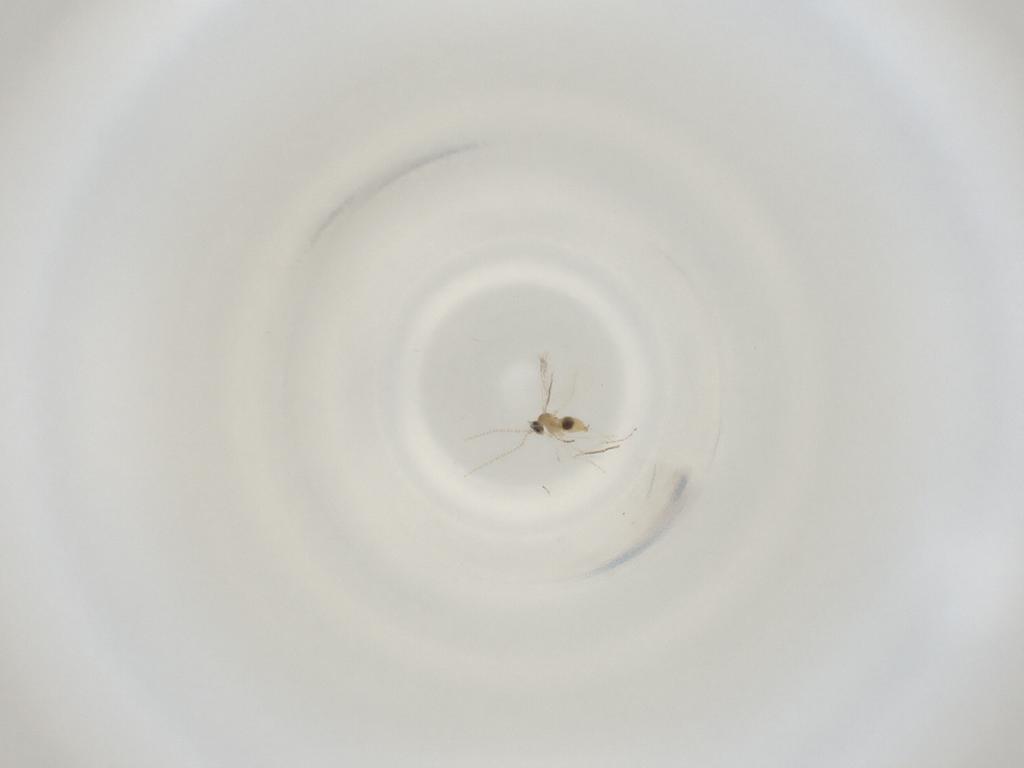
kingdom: Animalia
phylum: Arthropoda
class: Insecta
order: Diptera
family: Cecidomyiidae
